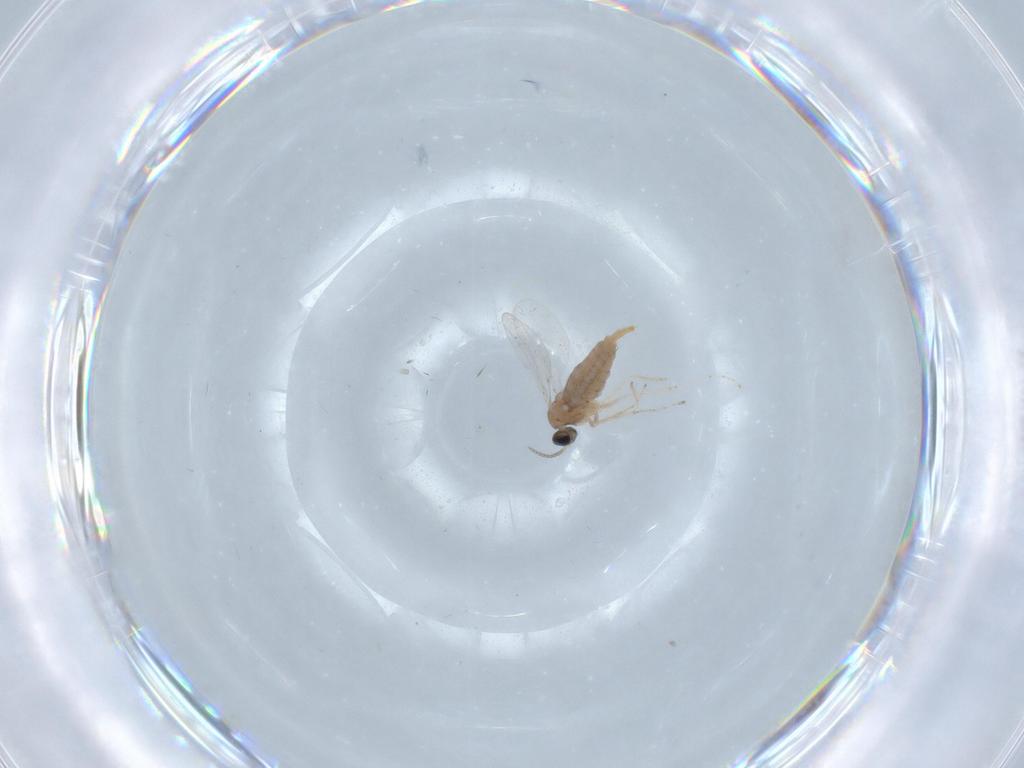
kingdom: Animalia
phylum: Arthropoda
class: Insecta
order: Diptera
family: Cecidomyiidae
